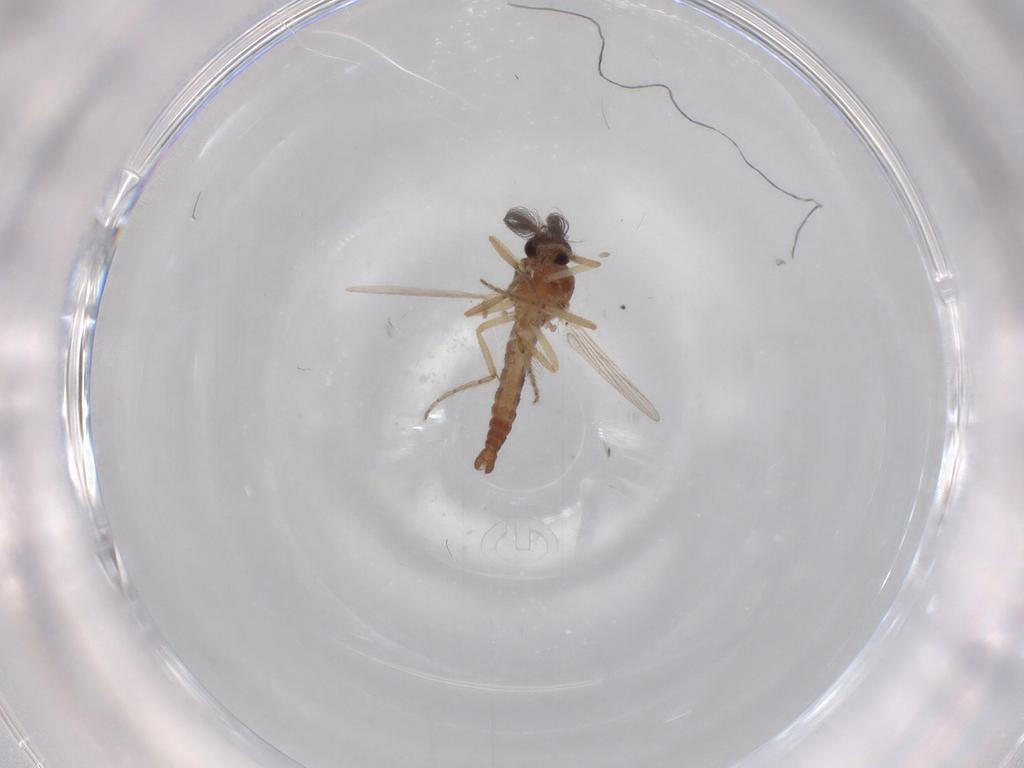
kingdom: Animalia
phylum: Arthropoda
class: Insecta
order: Diptera
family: Ceratopogonidae
